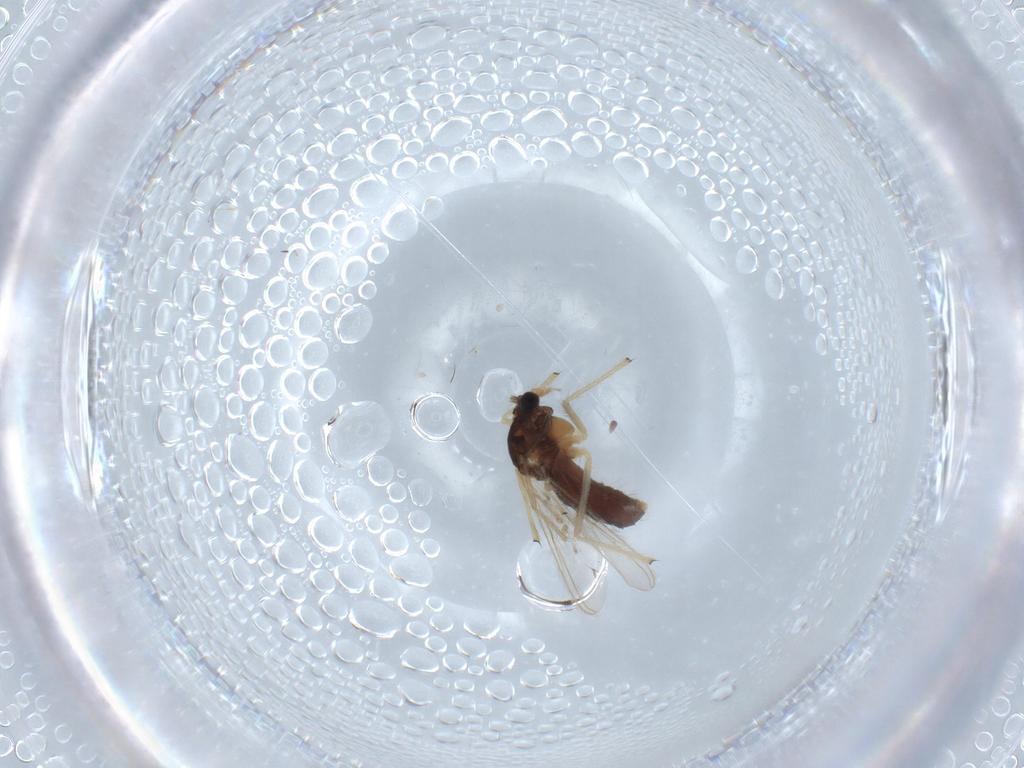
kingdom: Animalia
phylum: Arthropoda
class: Insecta
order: Diptera
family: Chironomidae
